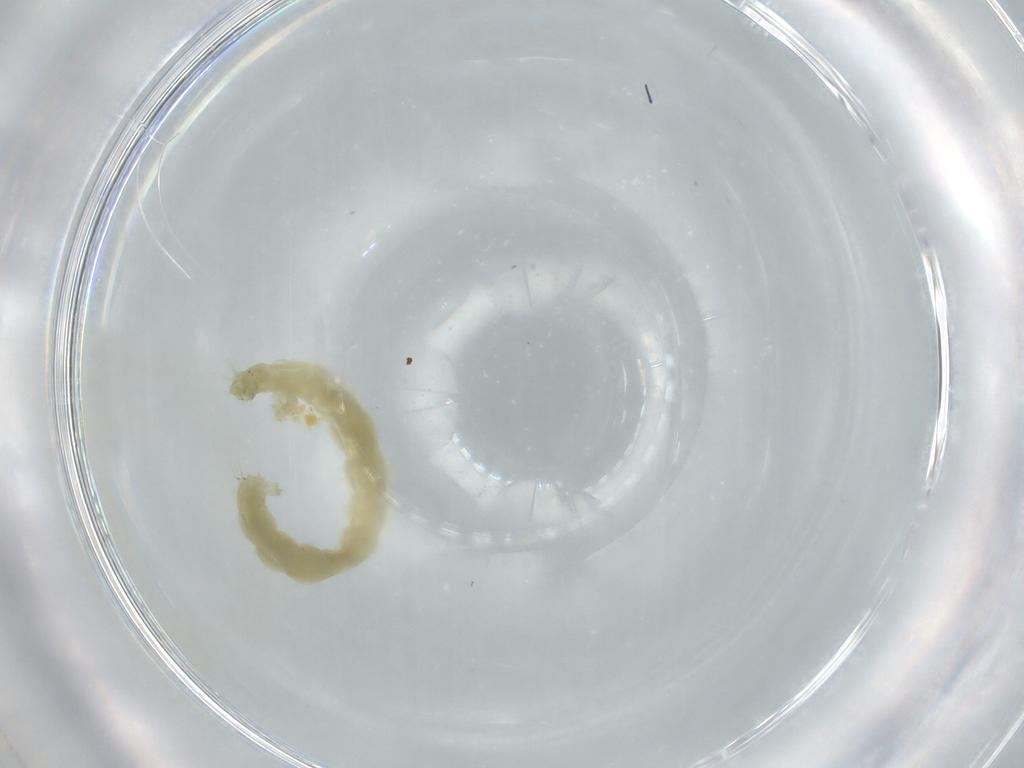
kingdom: Animalia
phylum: Arthropoda
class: Insecta
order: Diptera
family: Chironomidae
